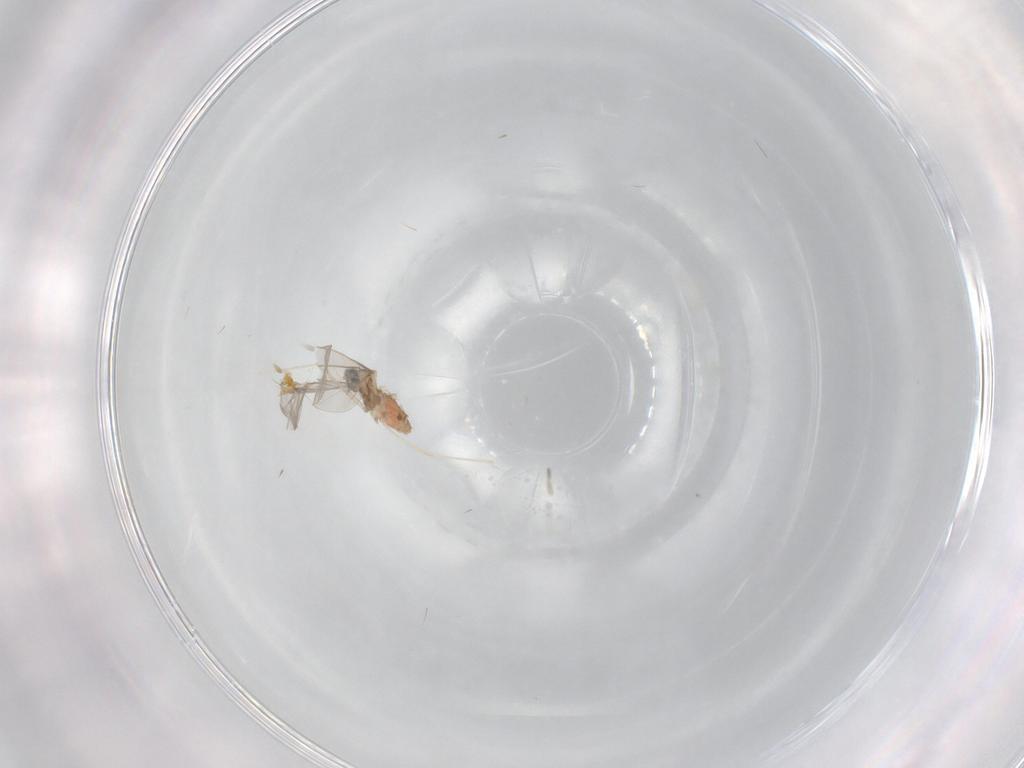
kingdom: Animalia
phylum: Arthropoda
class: Insecta
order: Diptera
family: Cecidomyiidae
